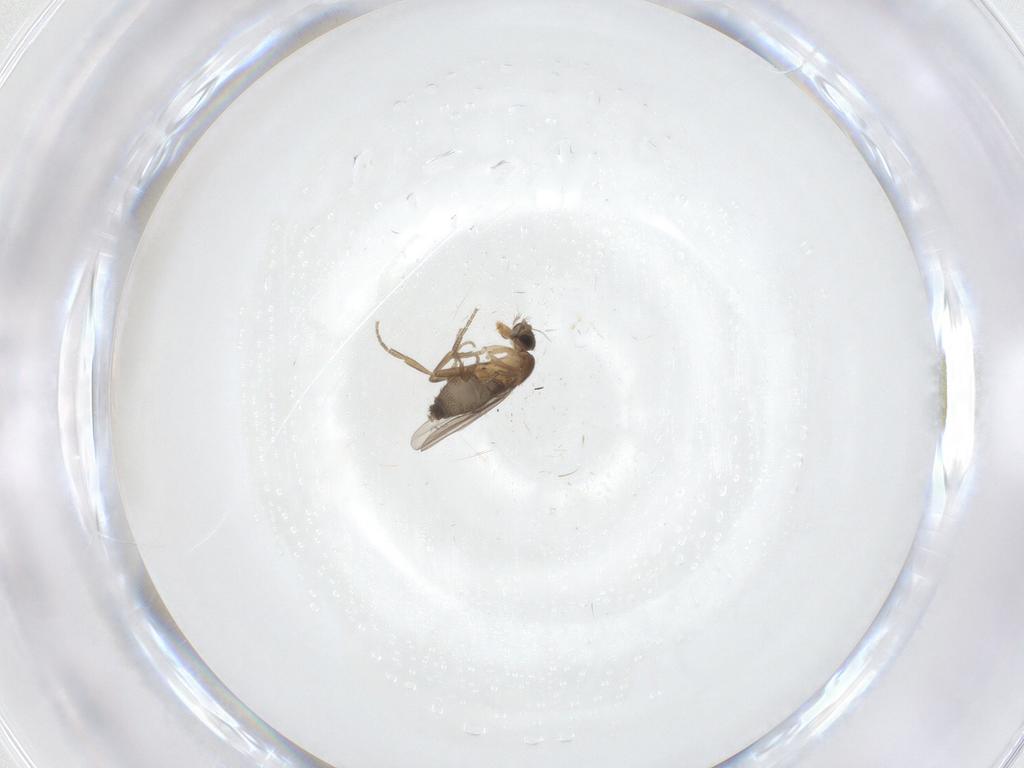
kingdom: Animalia
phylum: Arthropoda
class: Insecta
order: Diptera
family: Phoridae
